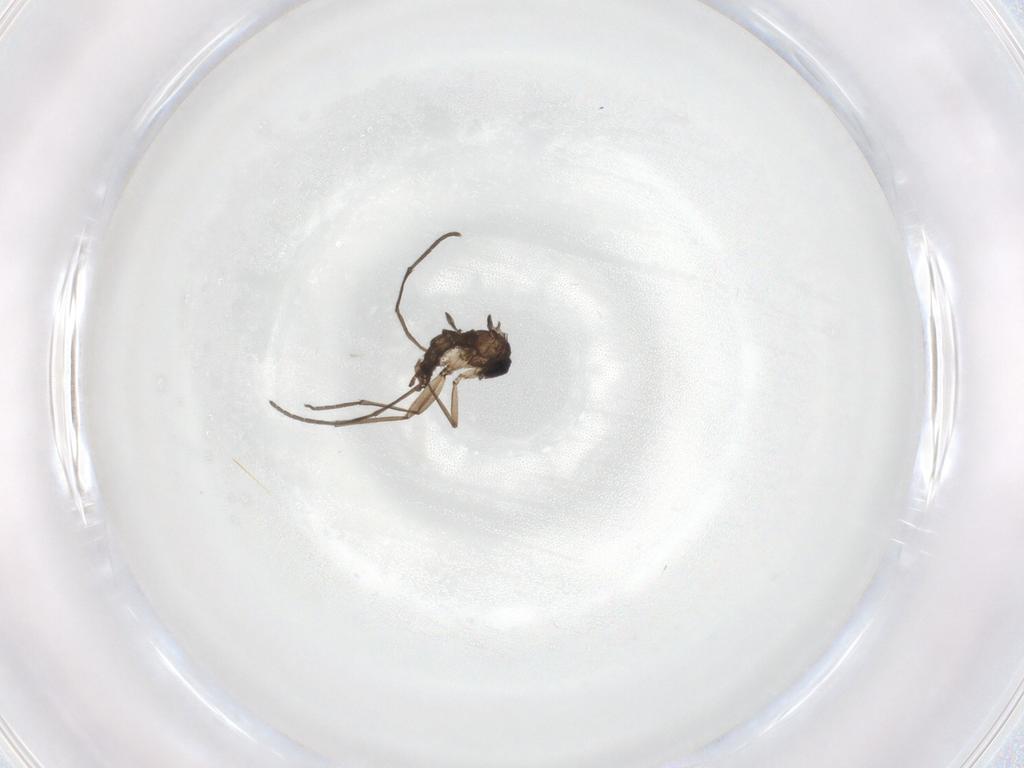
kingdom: Animalia
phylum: Arthropoda
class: Insecta
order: Diptera
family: Sciaridae
